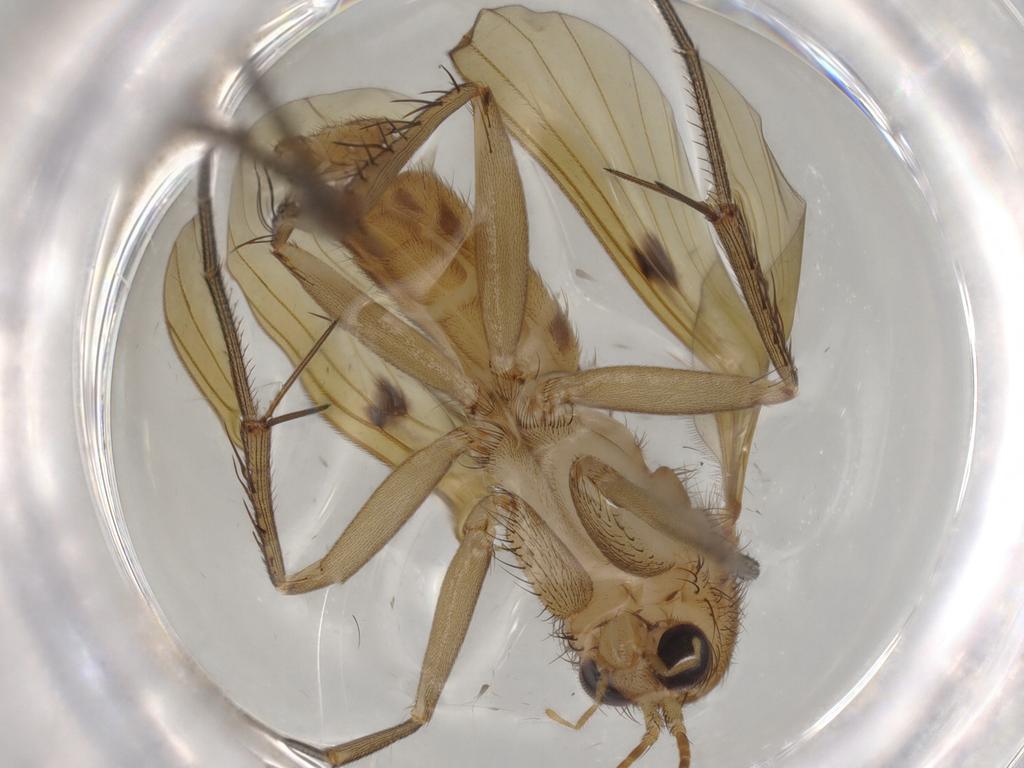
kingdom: Animalia
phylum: Arthropoda
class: Insecta
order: Diptera
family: Mycetophilidae
